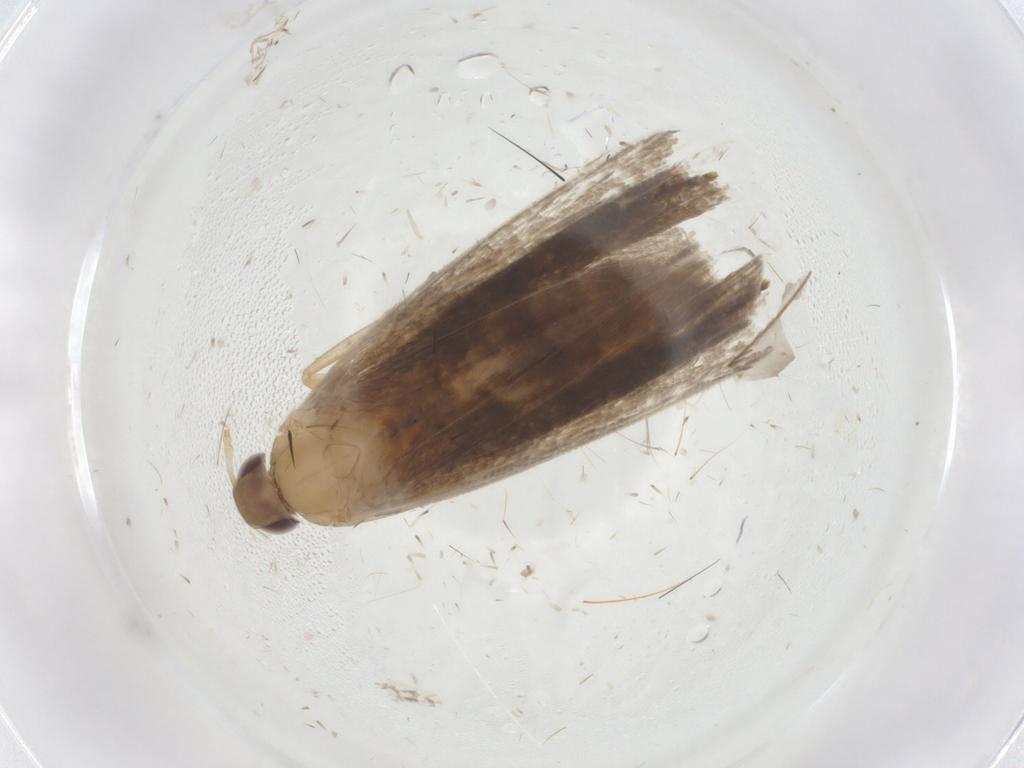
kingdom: Animalia
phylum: Arthropoda
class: Insecta
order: Lepidoptera
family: Crambidae
